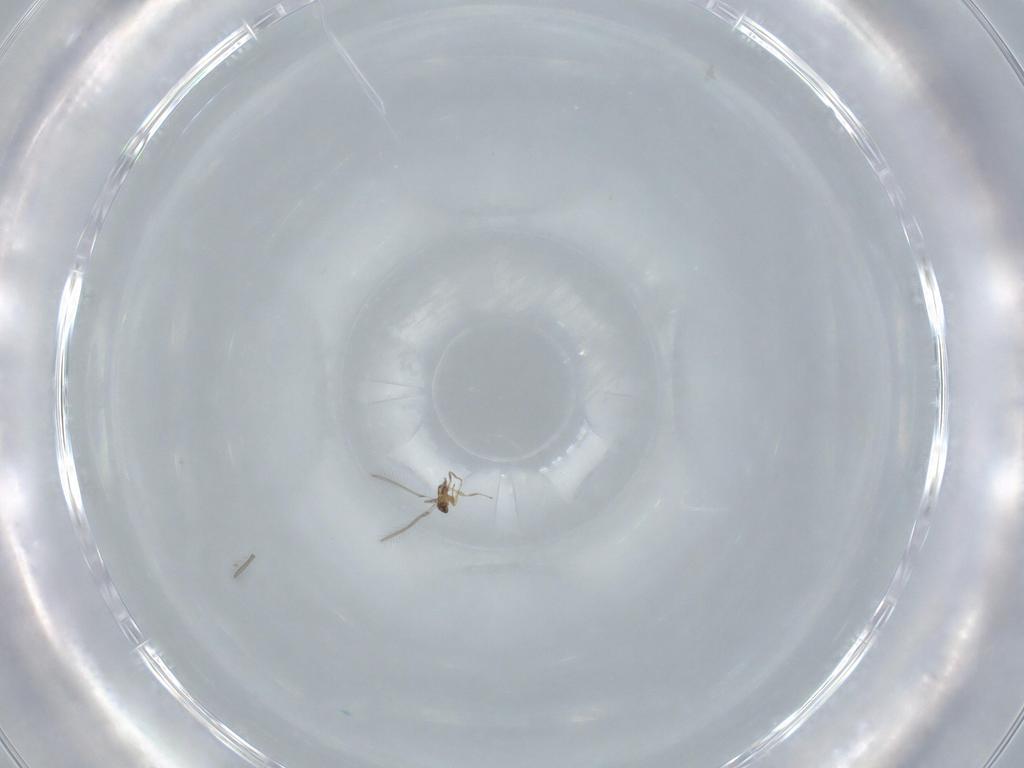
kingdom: Animalia
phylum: Arthropoda
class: Insecta
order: Hymenoptera
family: Mymaridae
